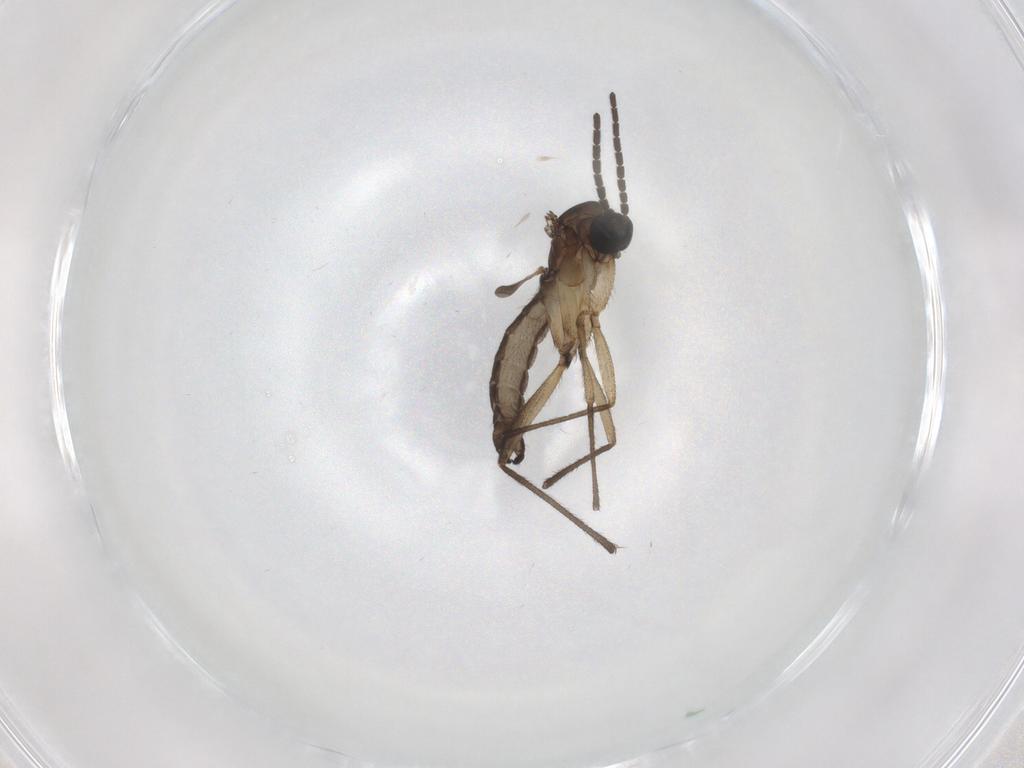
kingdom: Animalia
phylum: Arthropoda
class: Insecta
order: Diptera
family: Sciaridae
